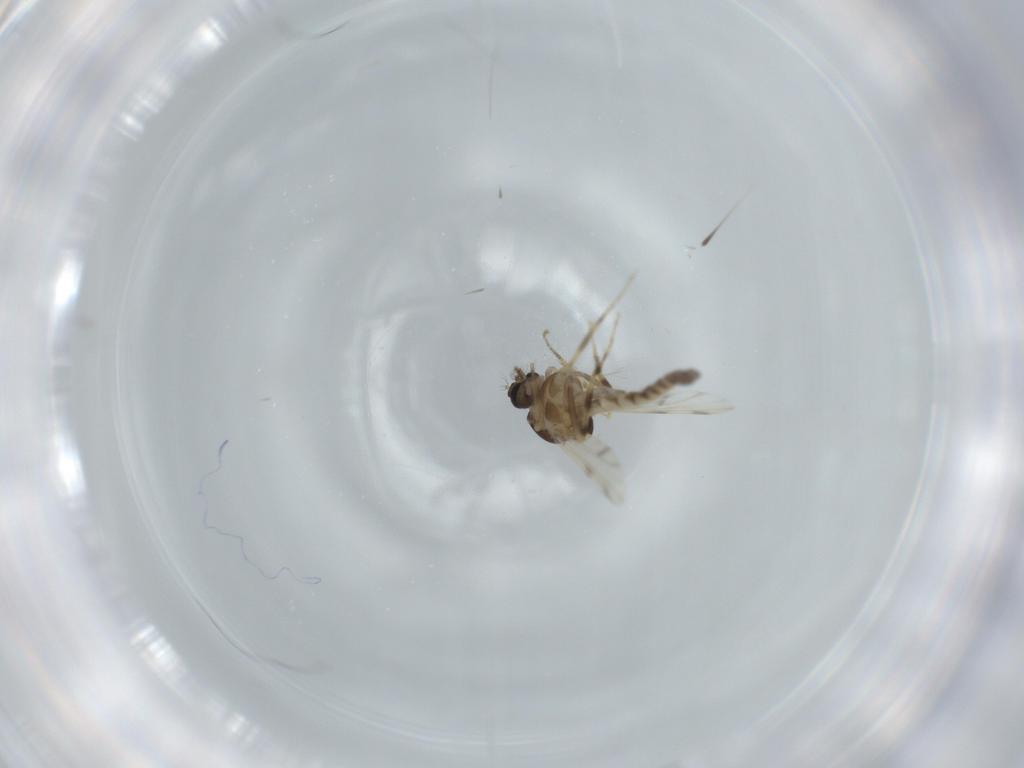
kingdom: Animalia
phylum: Arthropoda
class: Insecta
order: Diptera
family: Ceratopogonidae
